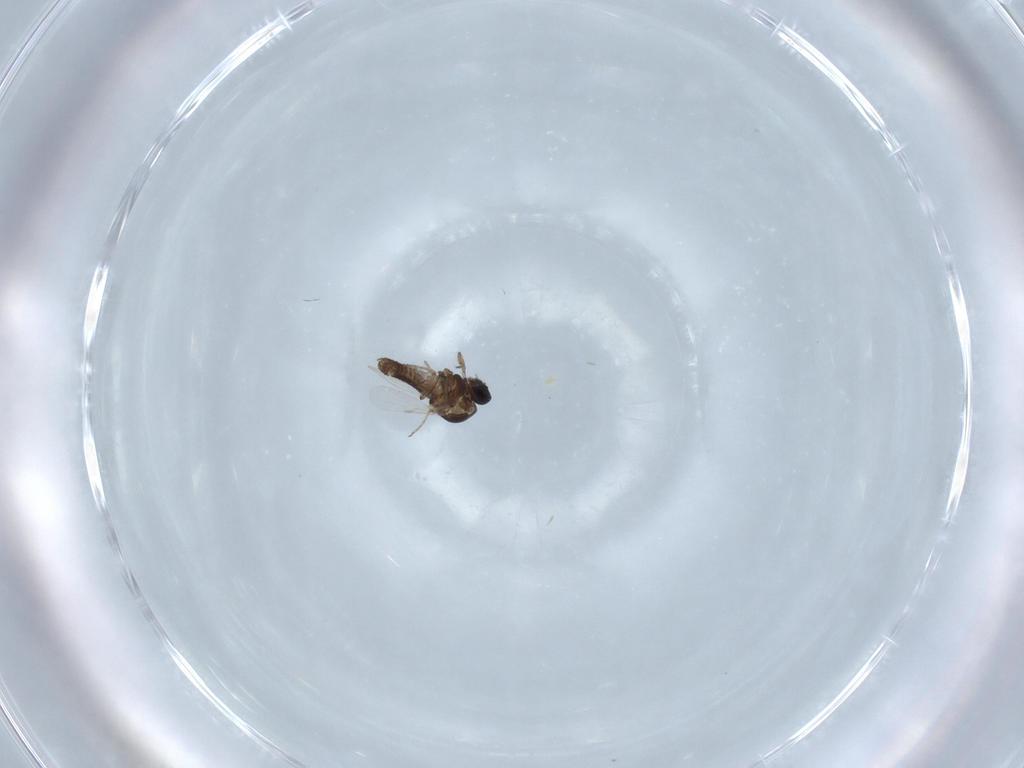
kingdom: Animalia
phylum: Arthropoda
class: Insecta
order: Diptera
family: Ceratopogonidae
